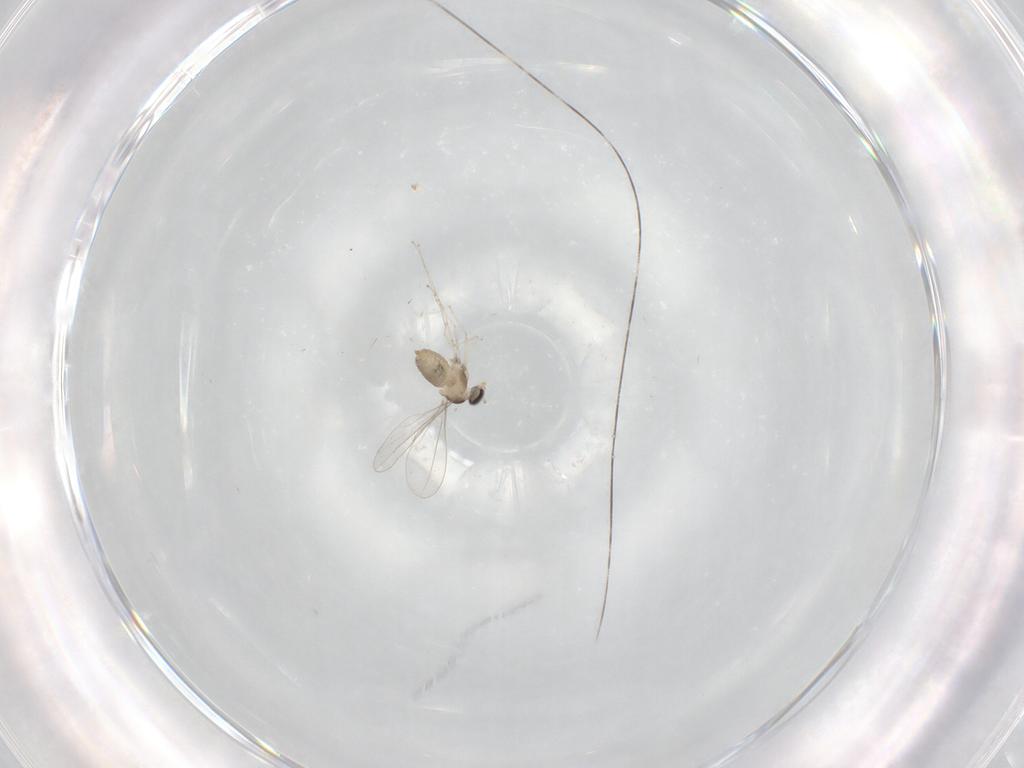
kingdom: Animalia
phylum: Arthropoda
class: Insecta
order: Diptera
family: Cecidomyiidae
